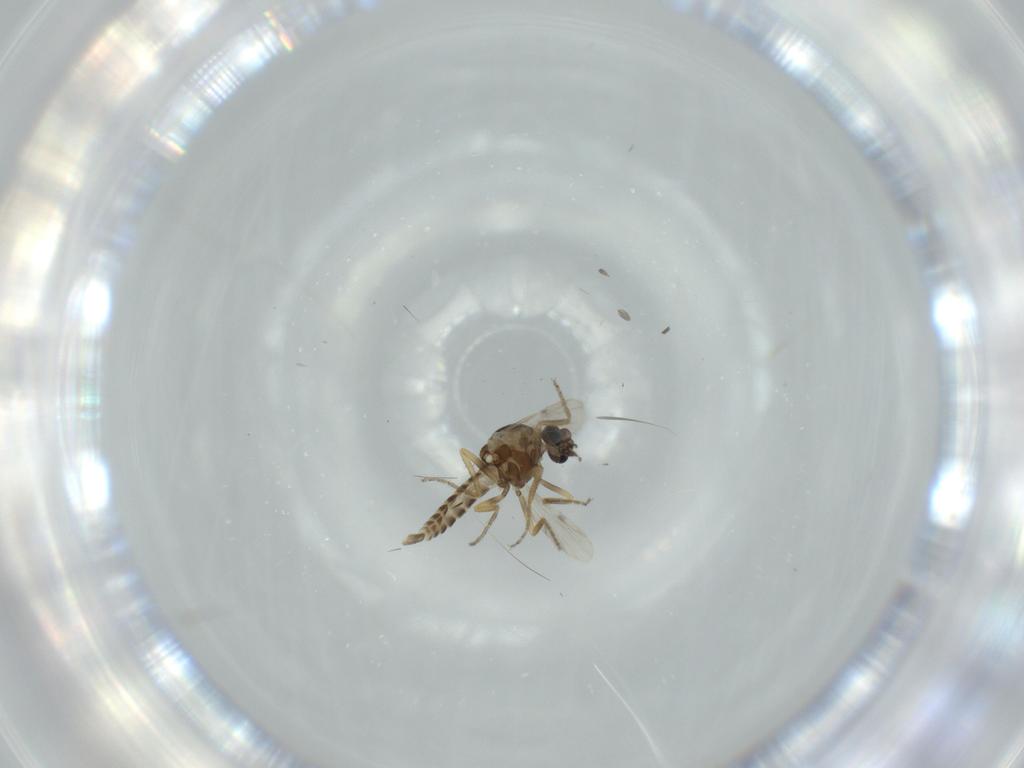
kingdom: Animalia
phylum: Arthropoda
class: Insecta
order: Diptera
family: Ceratopogonidae
